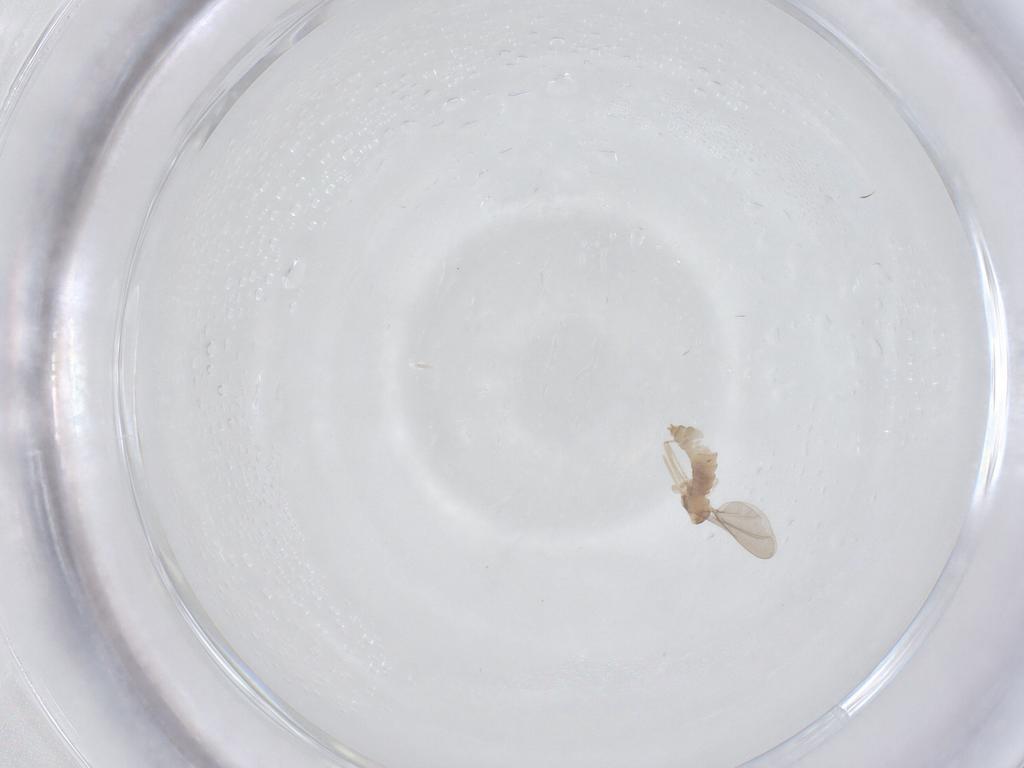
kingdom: Animalia
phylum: Arthropoda
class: Insecta
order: Diptera
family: Cecidomyiidae
